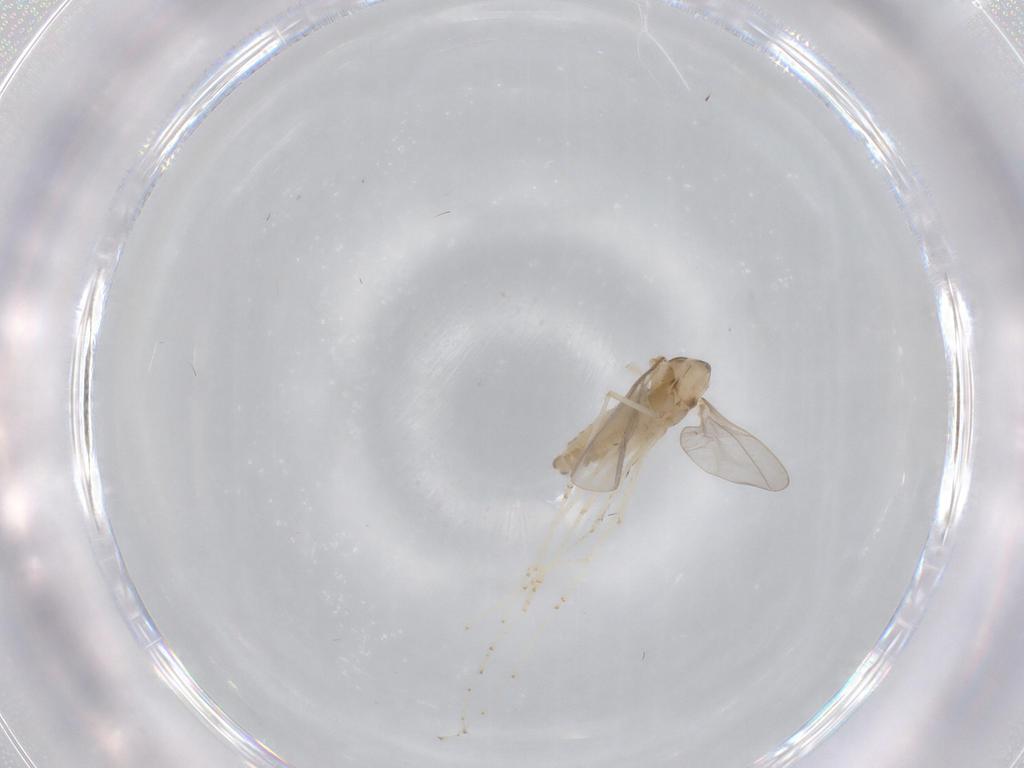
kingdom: Animalia
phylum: Arthropoda
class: Insecta
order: Diptera
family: Cecidomyiidae
